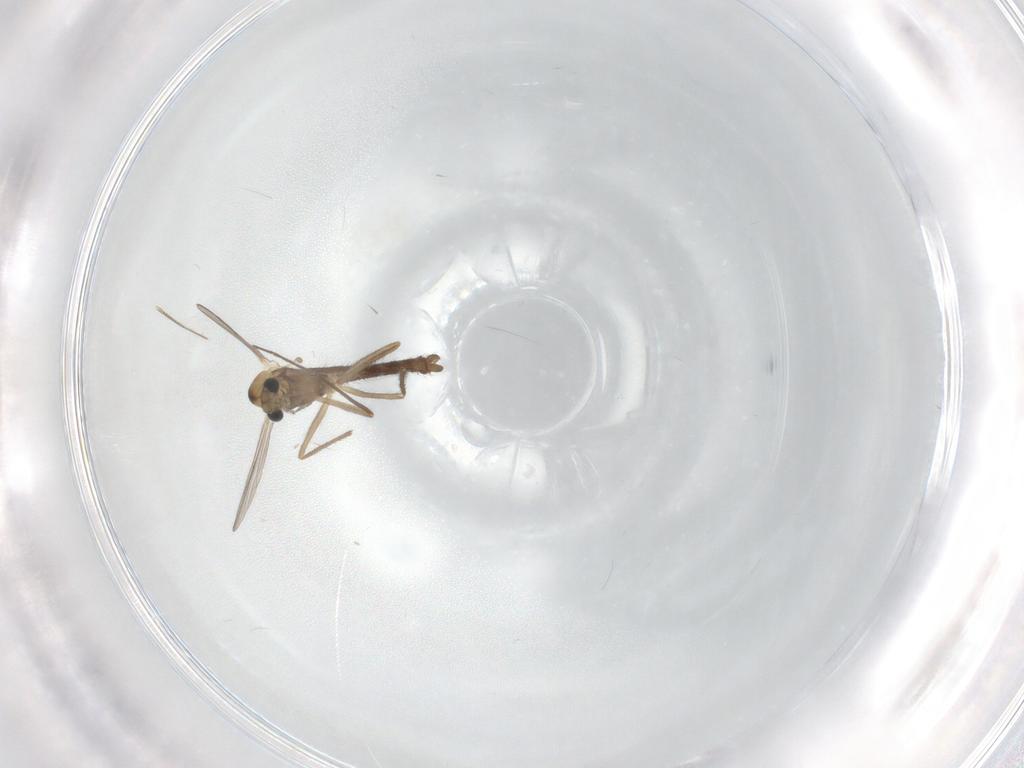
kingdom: Animalia
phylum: Arthropoda
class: Insecta
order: Diptera
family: Chironomidae
